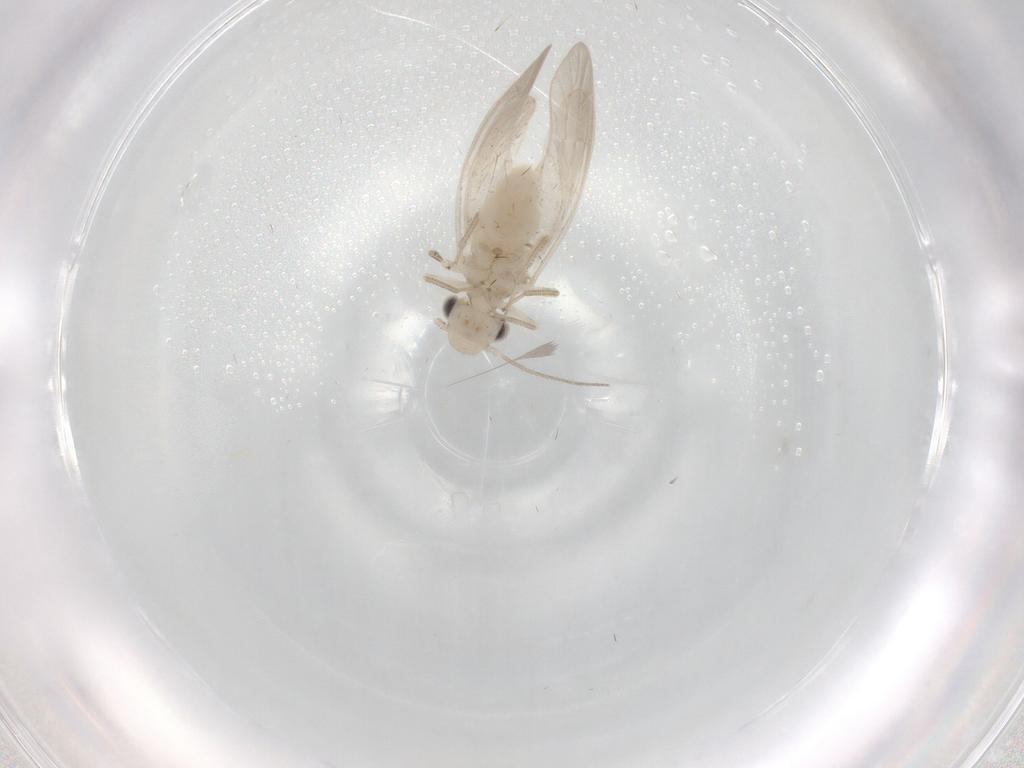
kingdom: Animalia
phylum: Arthropoda
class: Insecta
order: Psocodea
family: Caeciliusidae
